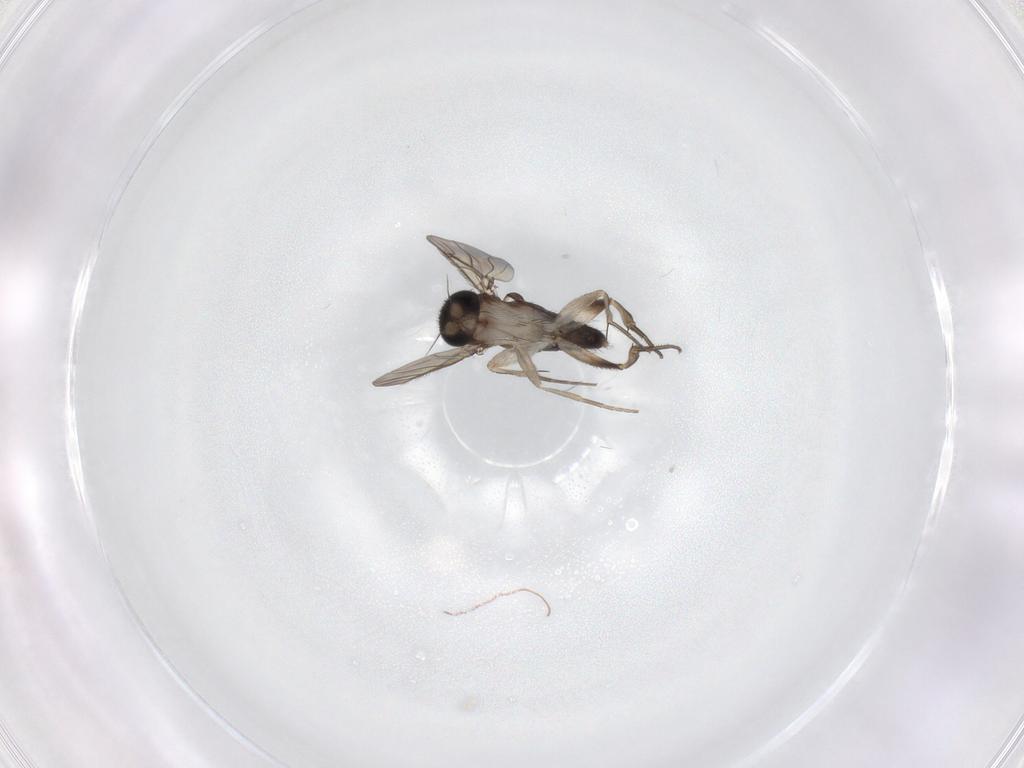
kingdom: Animalia
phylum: Arthropoda
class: Insecta
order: Diptera
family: Phoridae
